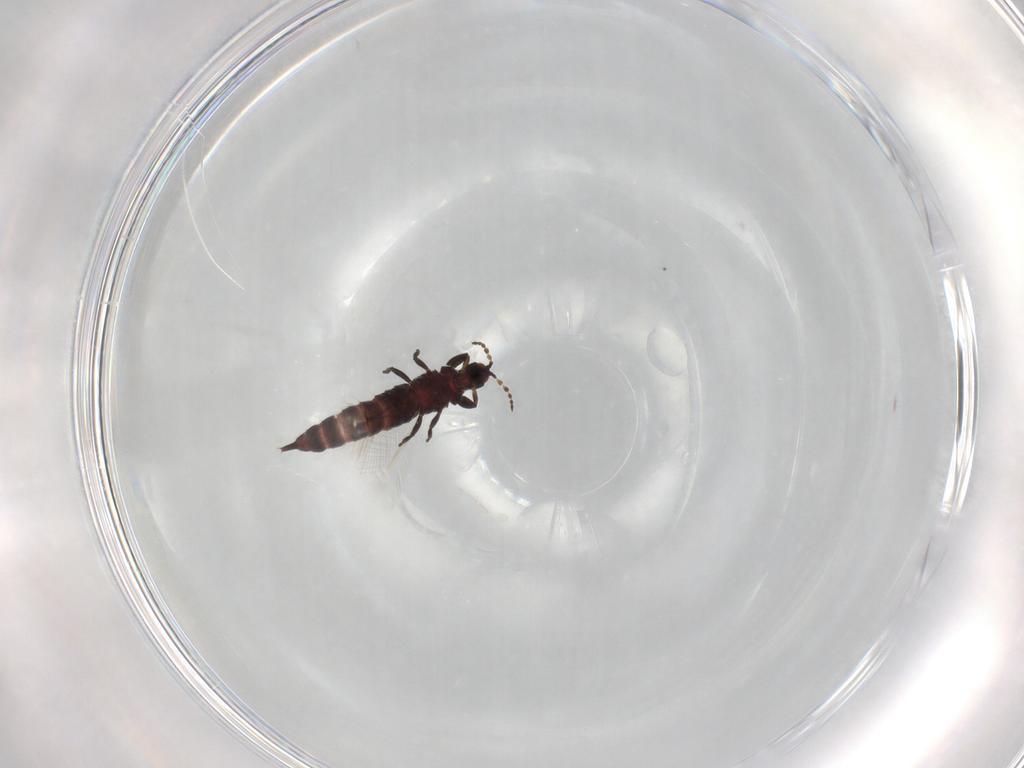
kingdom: Animalia
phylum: Arthropoda
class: Insecta
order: Thysanoptera
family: Phlaeothripidae
